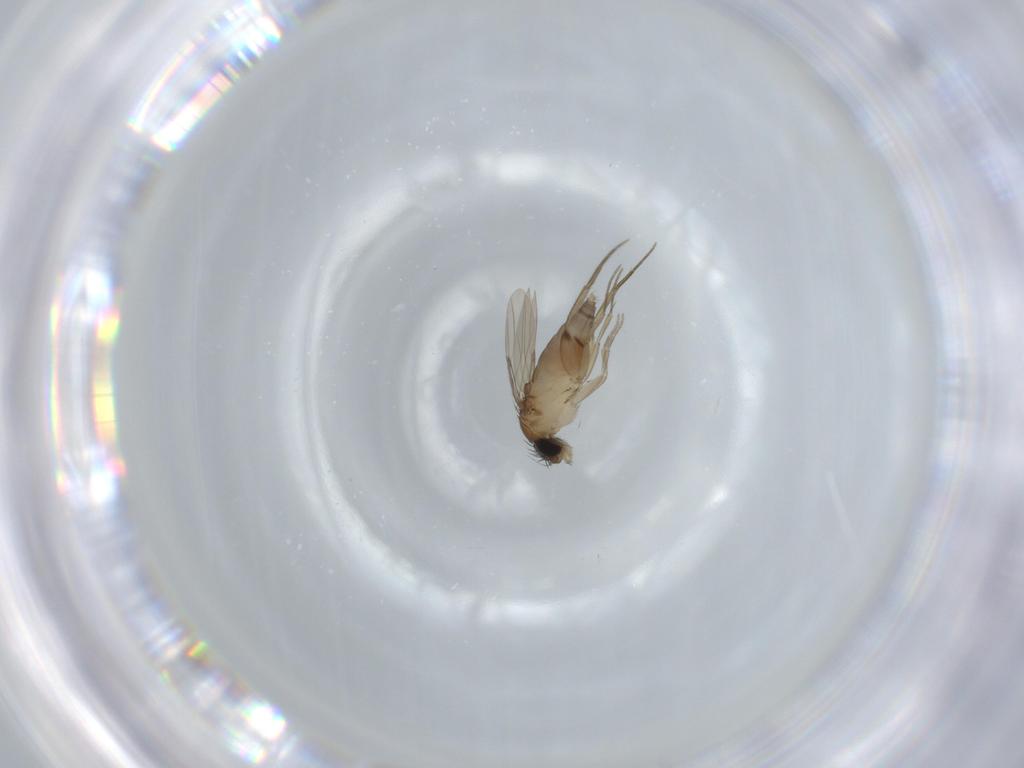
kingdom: Animalia
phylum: Arthropoda
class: Insecta
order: Diptera
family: Phoridae
